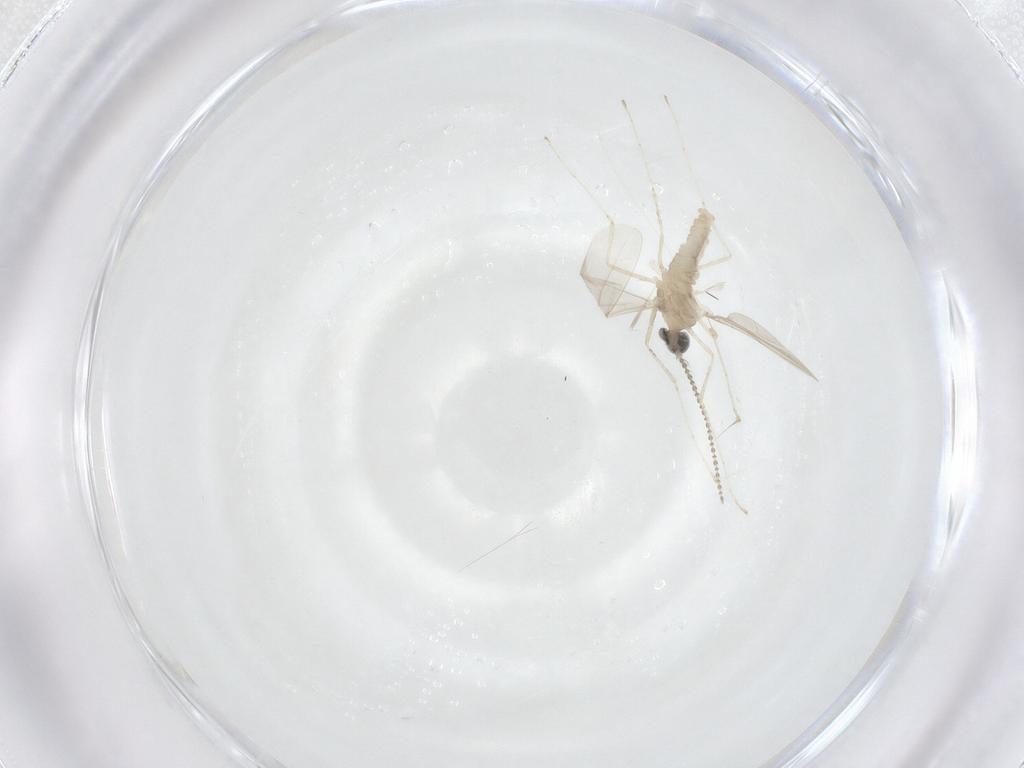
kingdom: Animalia
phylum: Arthropoda
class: Insecta
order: Diptera
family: Cecidomyiidae
